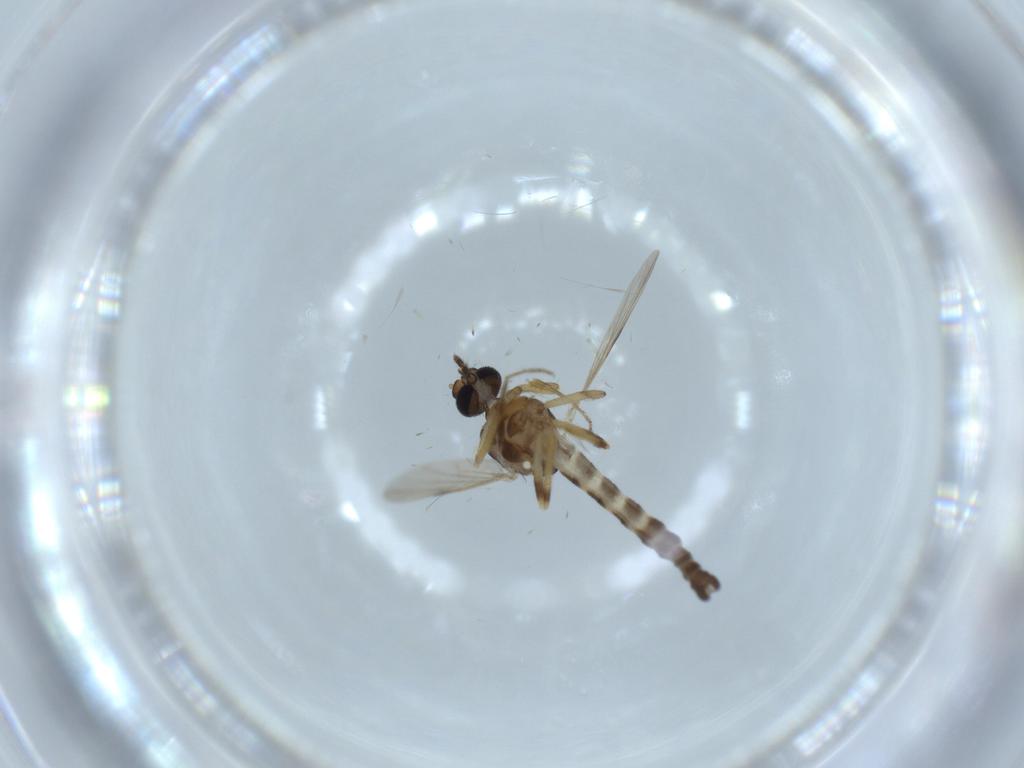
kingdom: Animalia
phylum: Arthropoda
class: Insecta
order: Diptera
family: Ceratopogonidae
